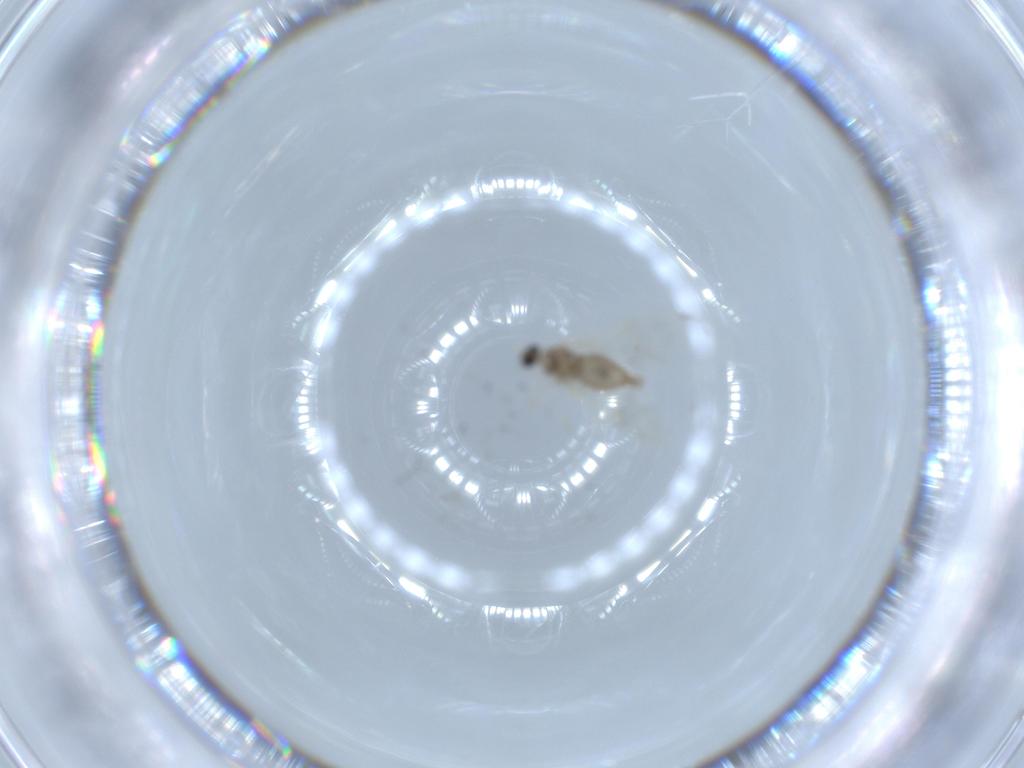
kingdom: Animalia
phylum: Arthropoda
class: Insecta
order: Diptera
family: Cecidomyiidae
